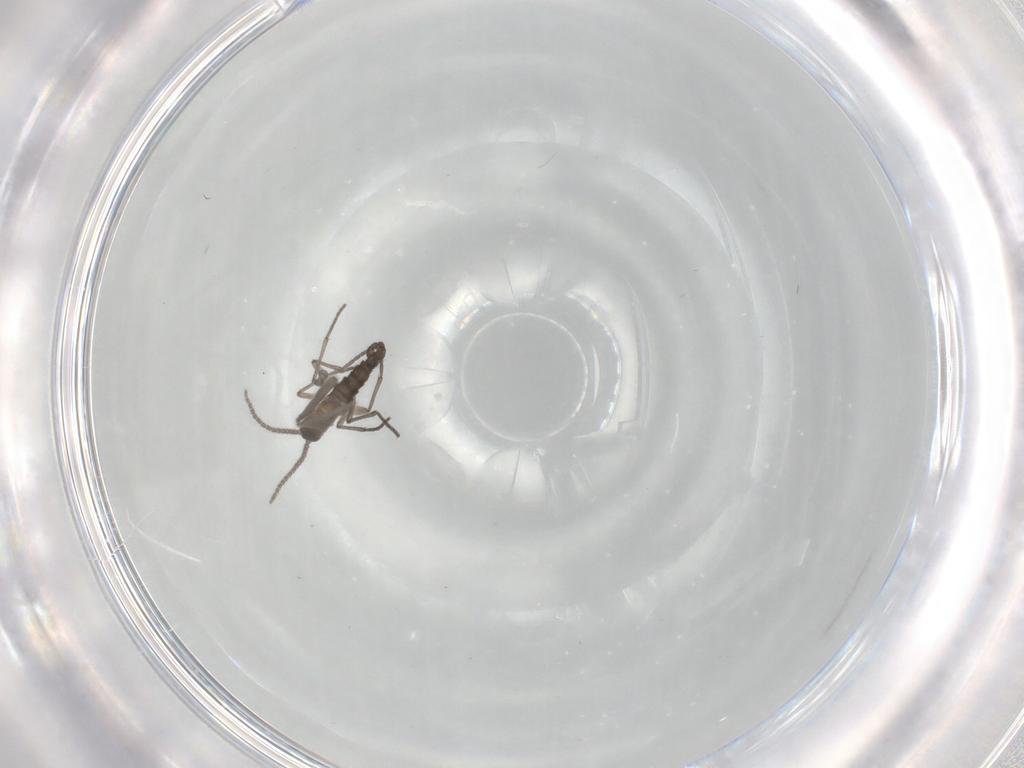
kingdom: Animalia
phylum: Arthropoda
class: Insecta
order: Diptera
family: Sciaridae
